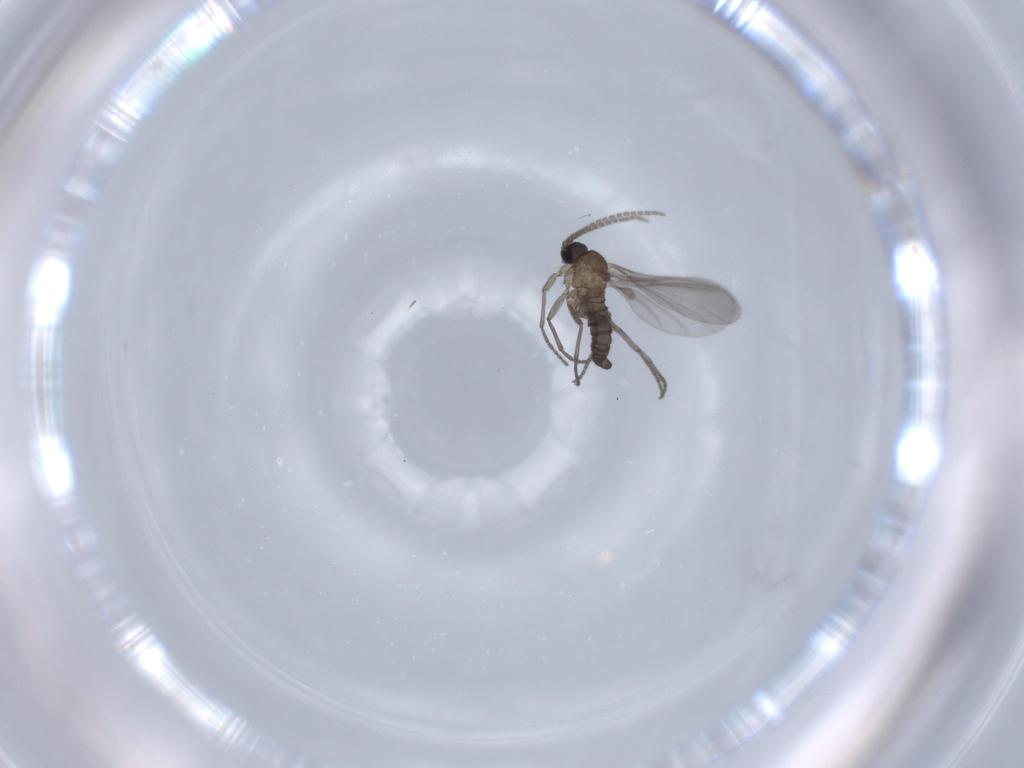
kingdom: Animalia
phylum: Arthropoda
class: Insecta
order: Diptera
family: Sciaridae
